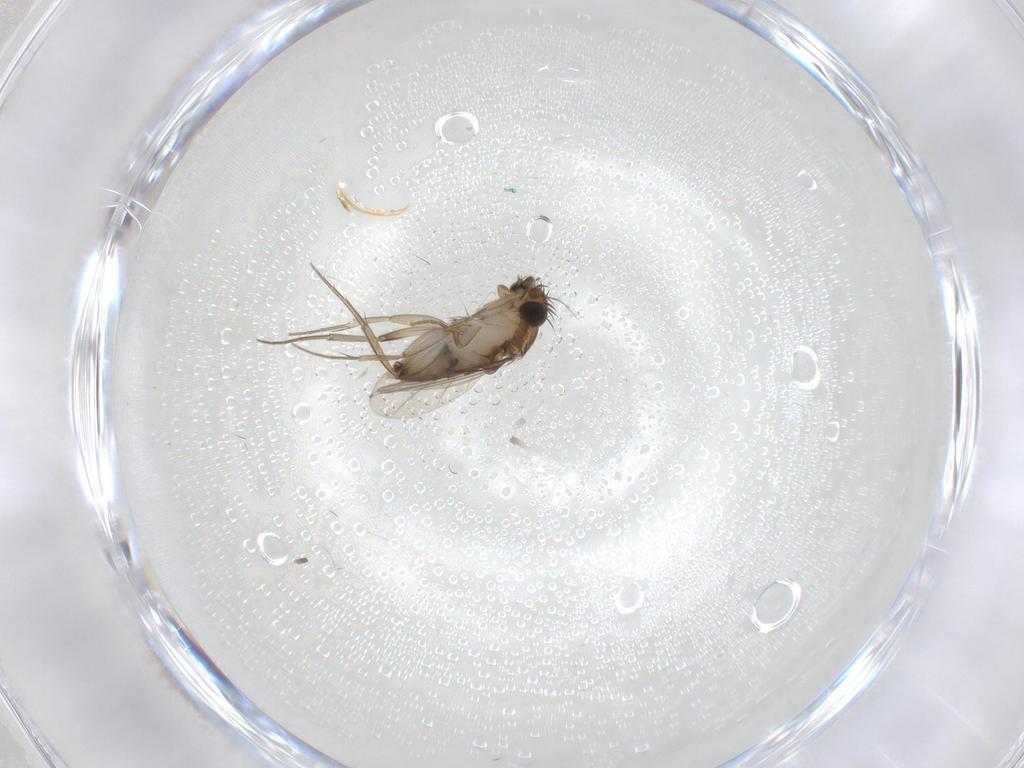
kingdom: Animalia
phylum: Arthropoda
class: Insecta
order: Diptera
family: Phoridae
